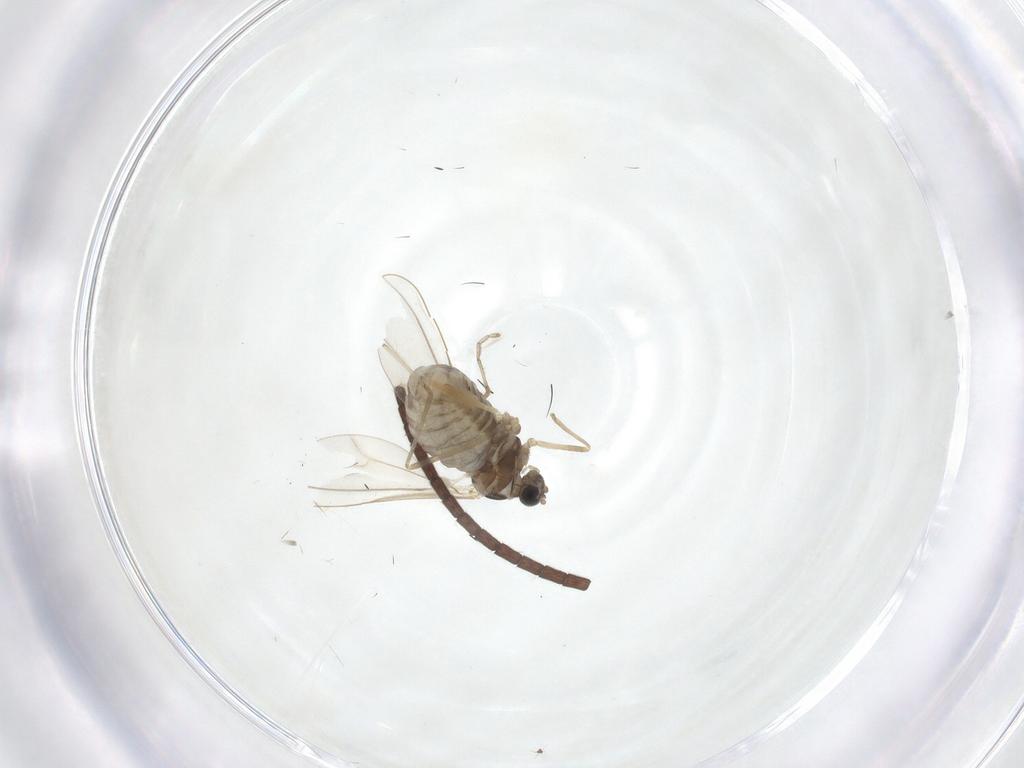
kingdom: Animalia
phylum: Arthropoda
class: Insecta
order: Diptera
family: Cecidomyiidae
